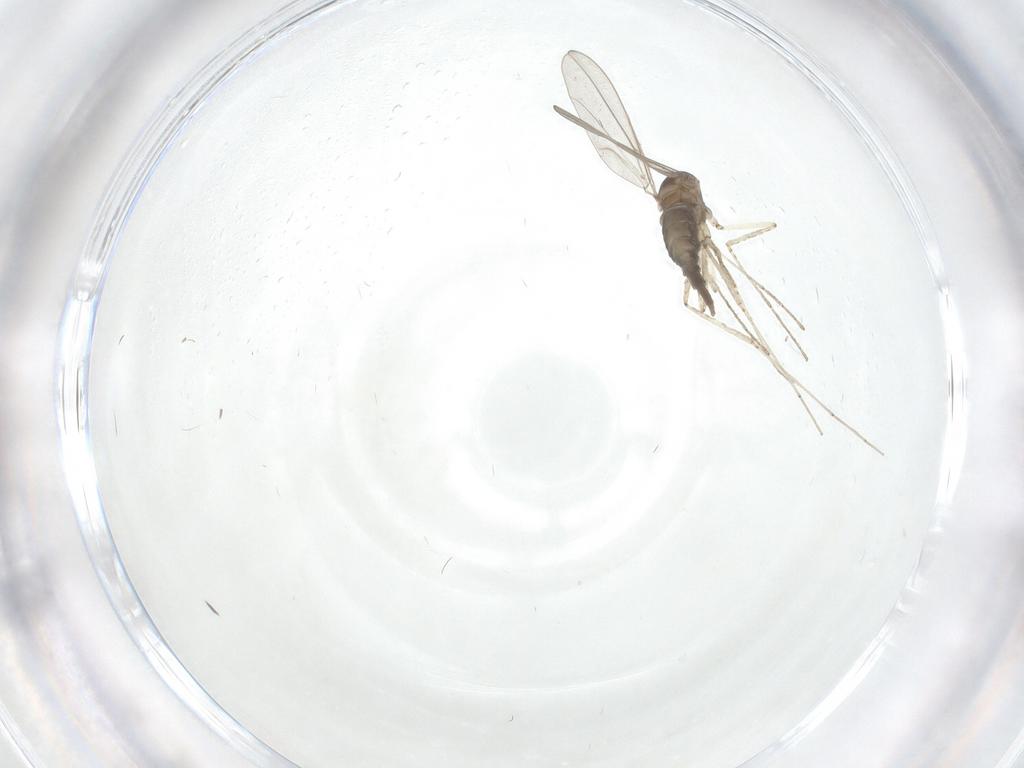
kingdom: Animalia
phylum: Arthropoda
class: Insecta
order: Diptera
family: Cecidomyiidae
